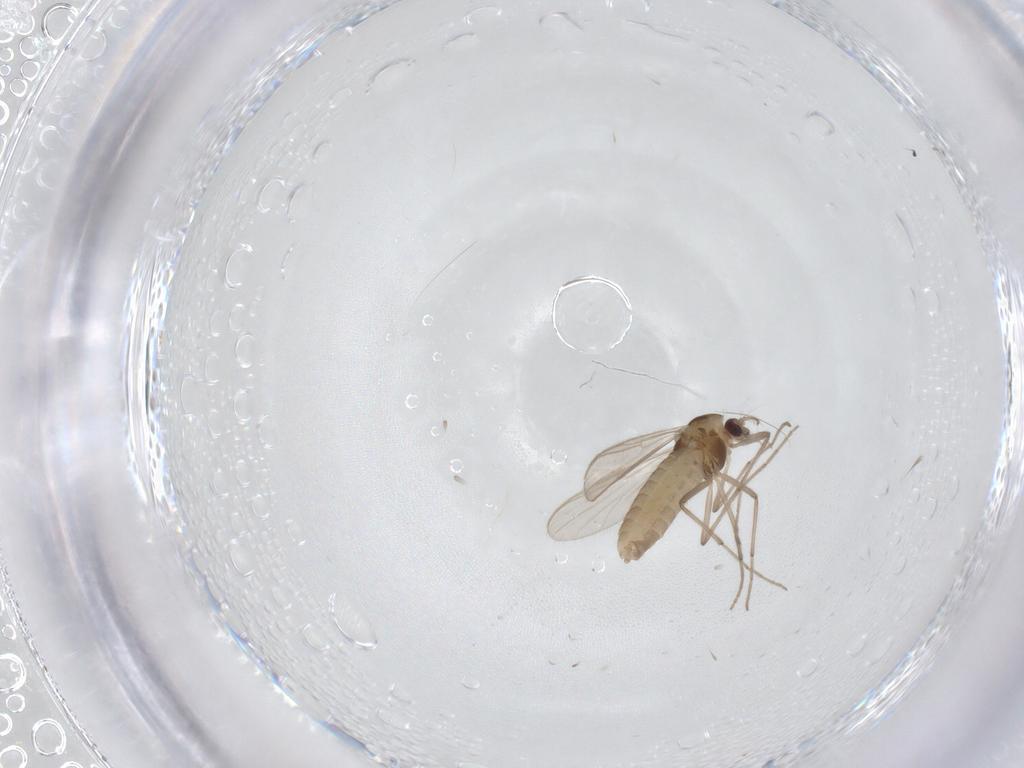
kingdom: Animalia
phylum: Arthropoda
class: Insecta
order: Diptera
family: Chironomidae
